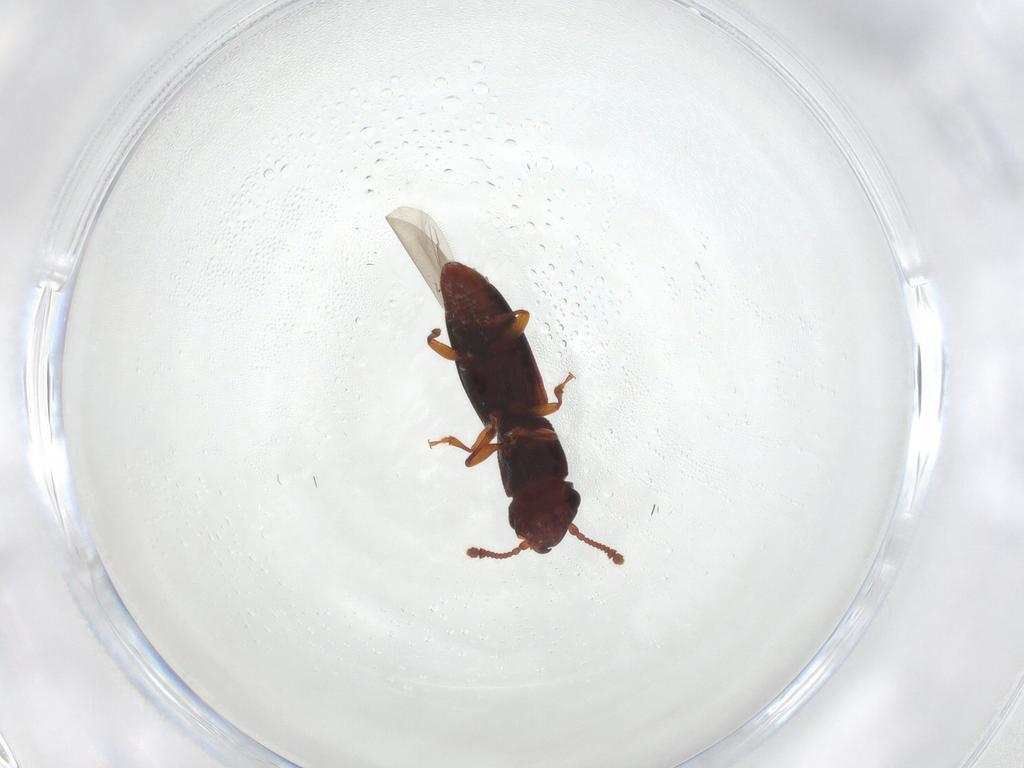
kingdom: Animalia
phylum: Arthropoda
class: Insecta
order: Coleoptera
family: Monotomidae
